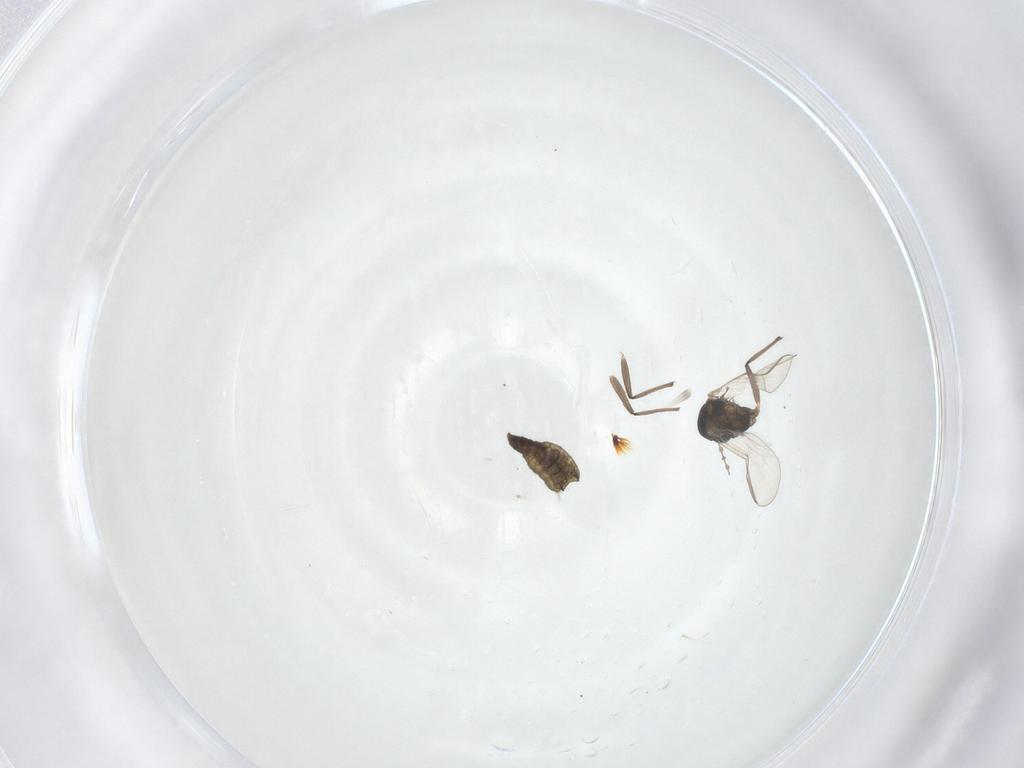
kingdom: Animalia
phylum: Arthropoda
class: Insecta
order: Diptera
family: Chironomidae
